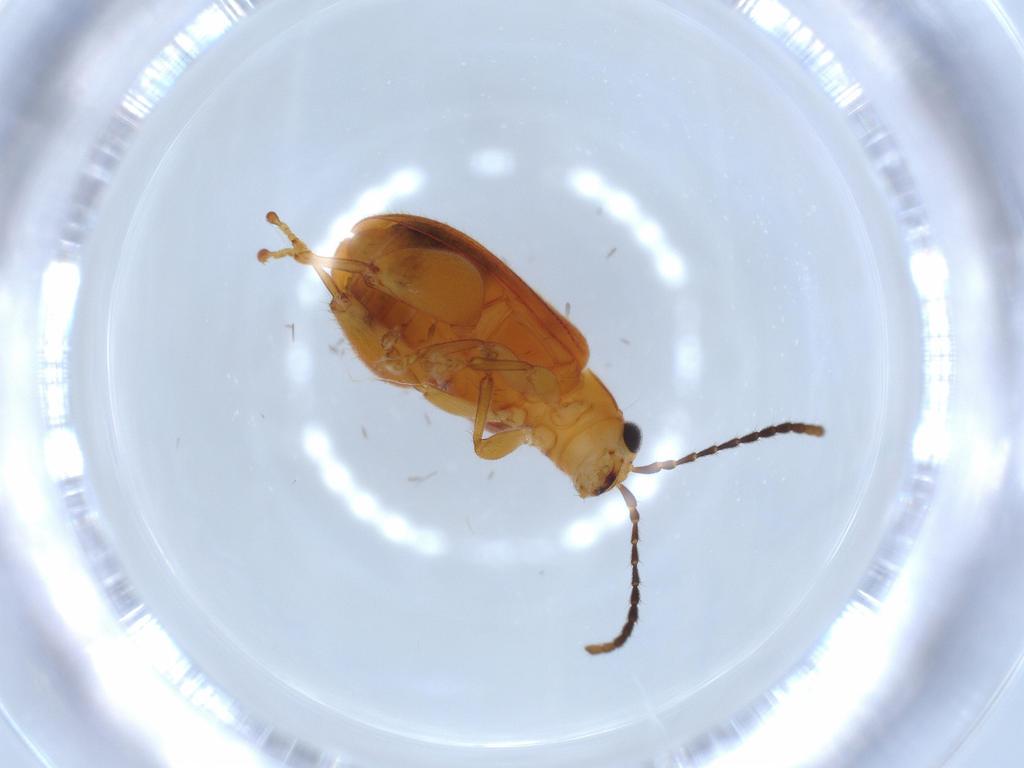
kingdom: Animalia
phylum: Arthropoda
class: Insecta
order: Coleoptera
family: Chrysomelidae
